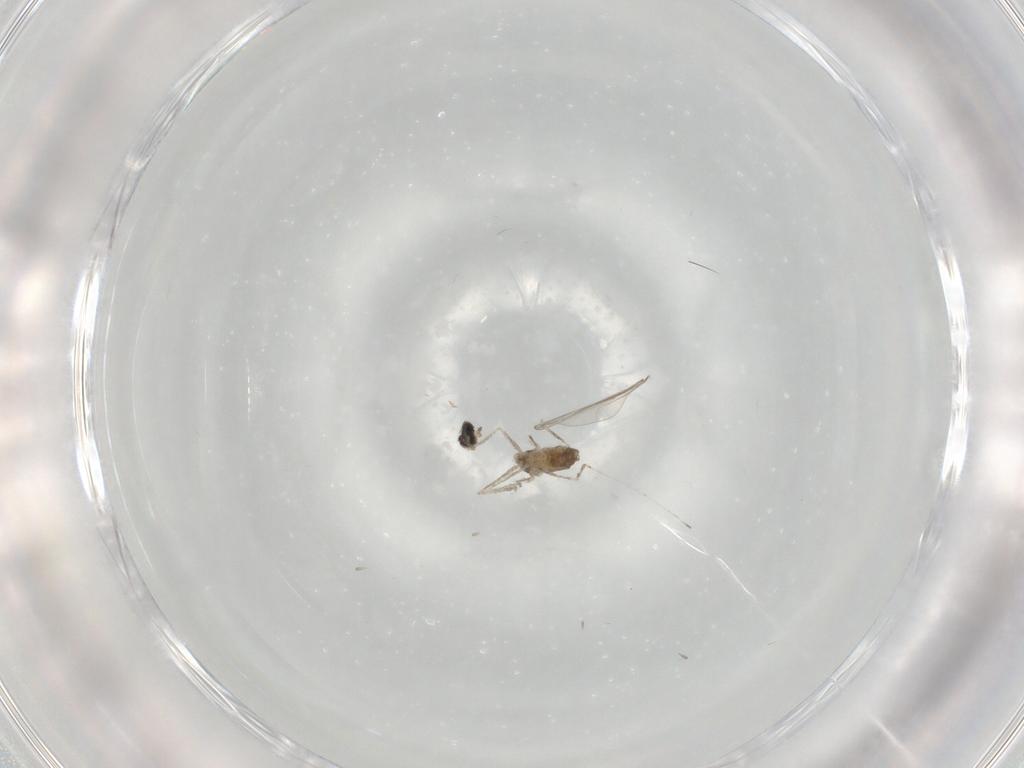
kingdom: Animalia
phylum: Arthropoda
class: Insecta
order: Diptera
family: Cecidomyiidae
